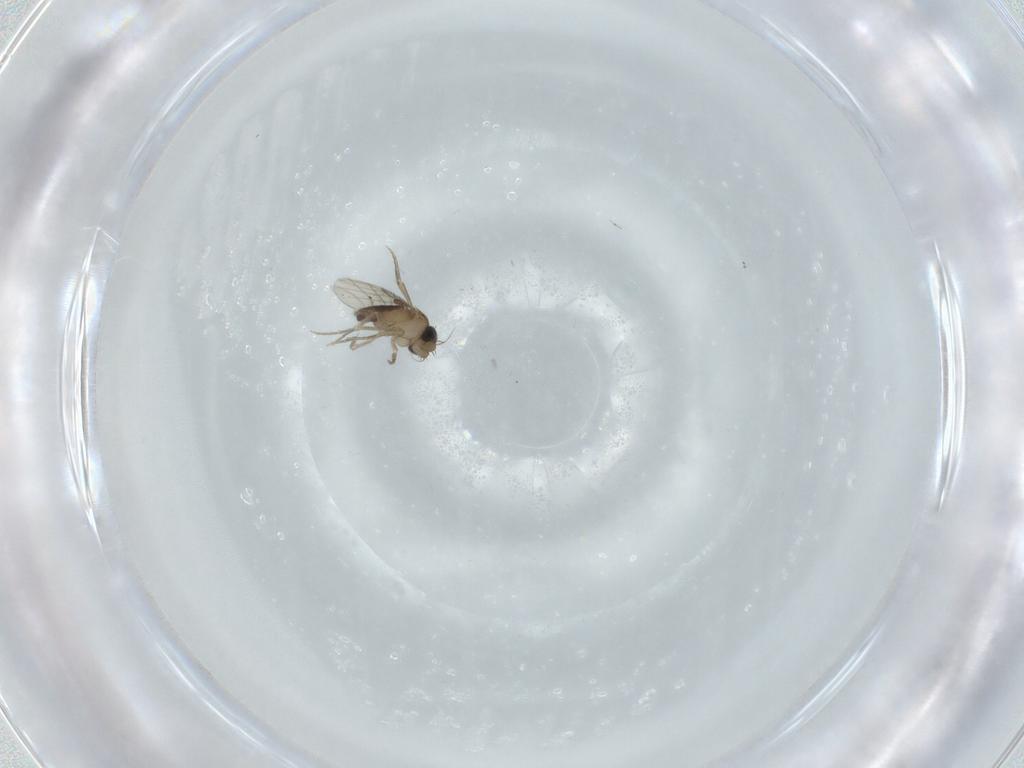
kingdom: Animalia
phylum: Arthropoda
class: Insecta
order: Diptera
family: Phoridae
